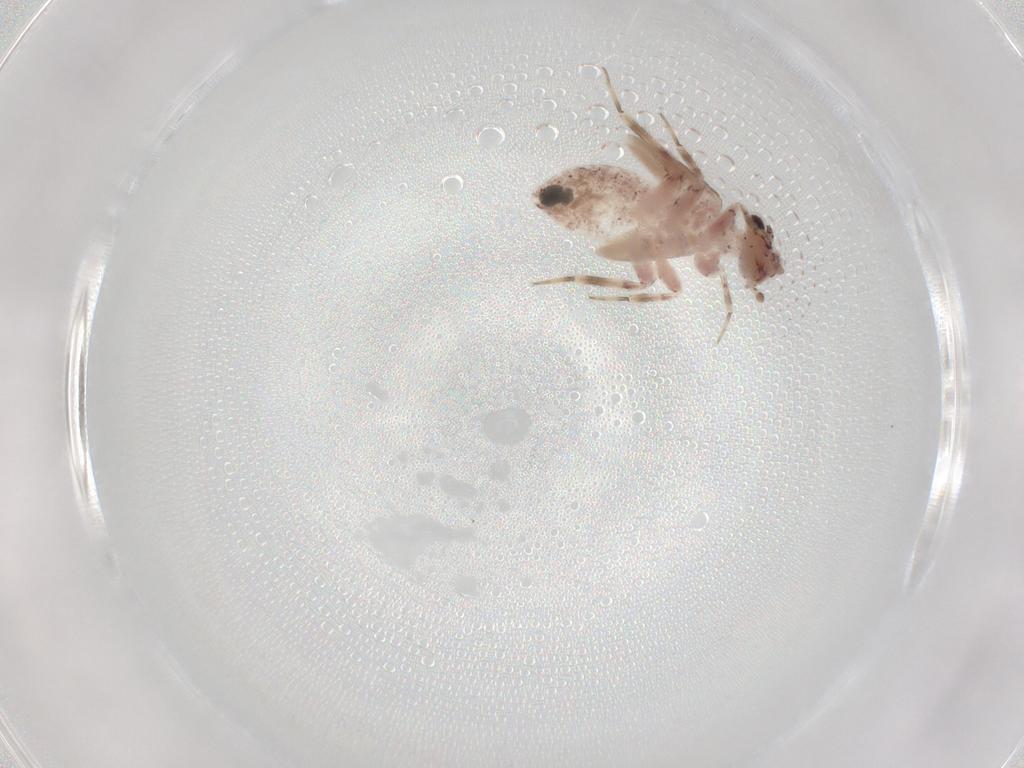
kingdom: Animalia
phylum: Arthropoda
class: Insecta
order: Psocodea
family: Lepidopsocidae
